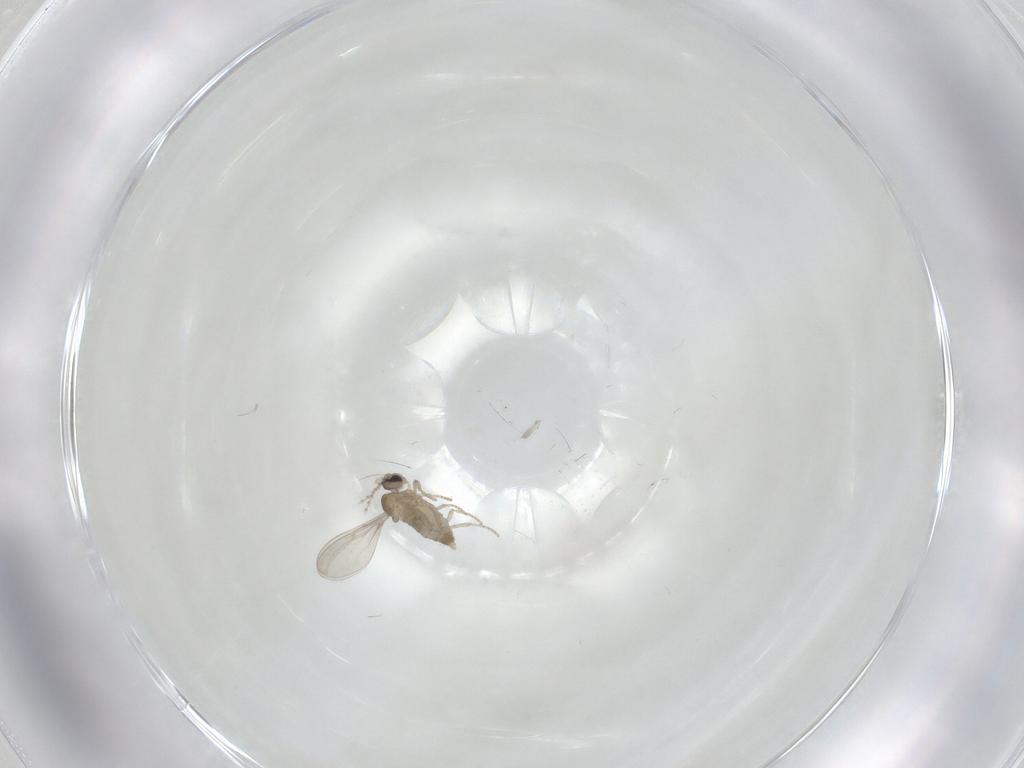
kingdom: Animalia
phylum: Arthropoda
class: Insecta
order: Diptera
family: Cecidomyiidae
